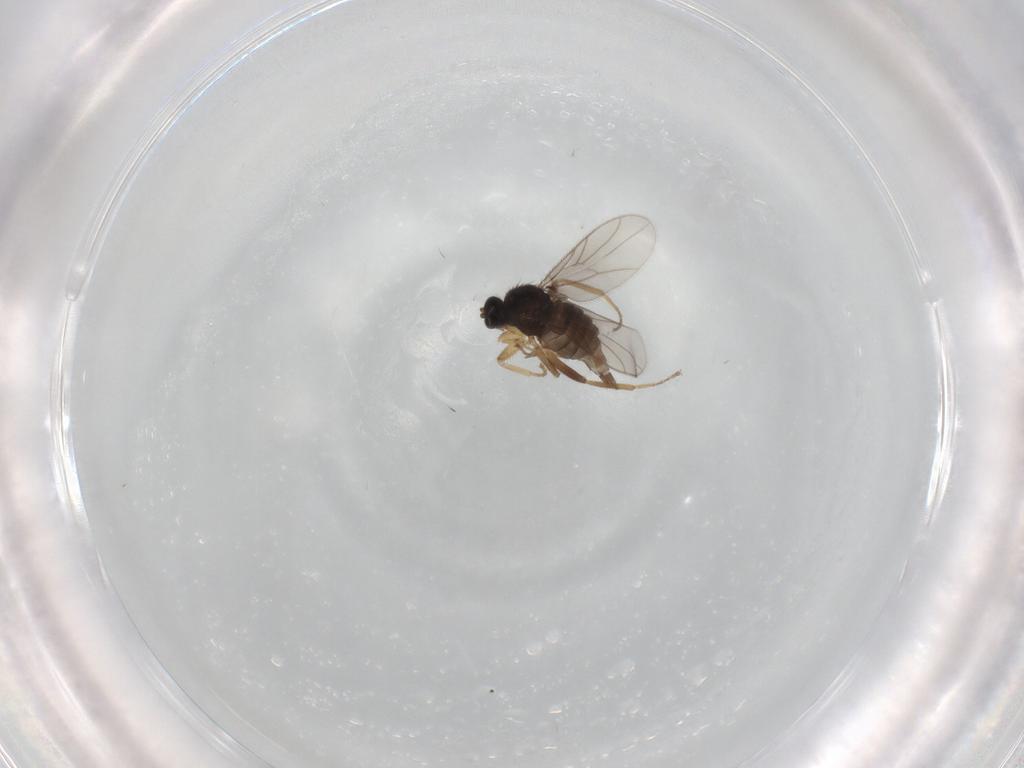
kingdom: Animalia
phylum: Arthropoda
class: Insecta
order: Diptera
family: Hybotidae
